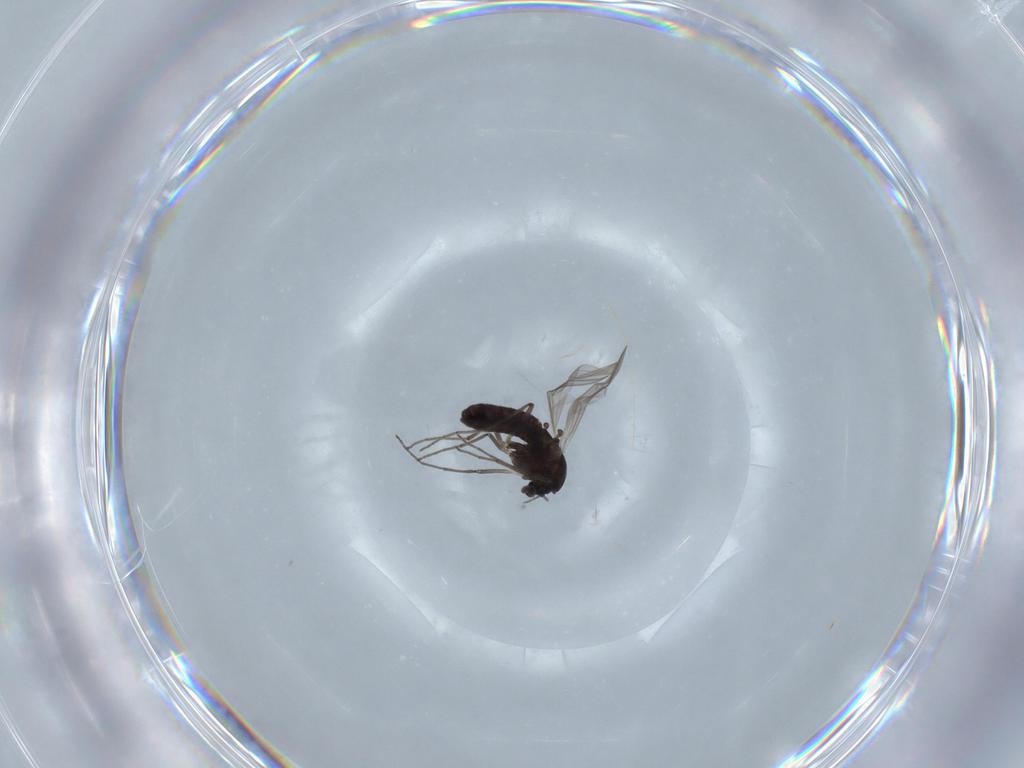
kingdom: Animalia
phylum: Arthropoda
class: Insecta
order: Diptera
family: Chironomidae
